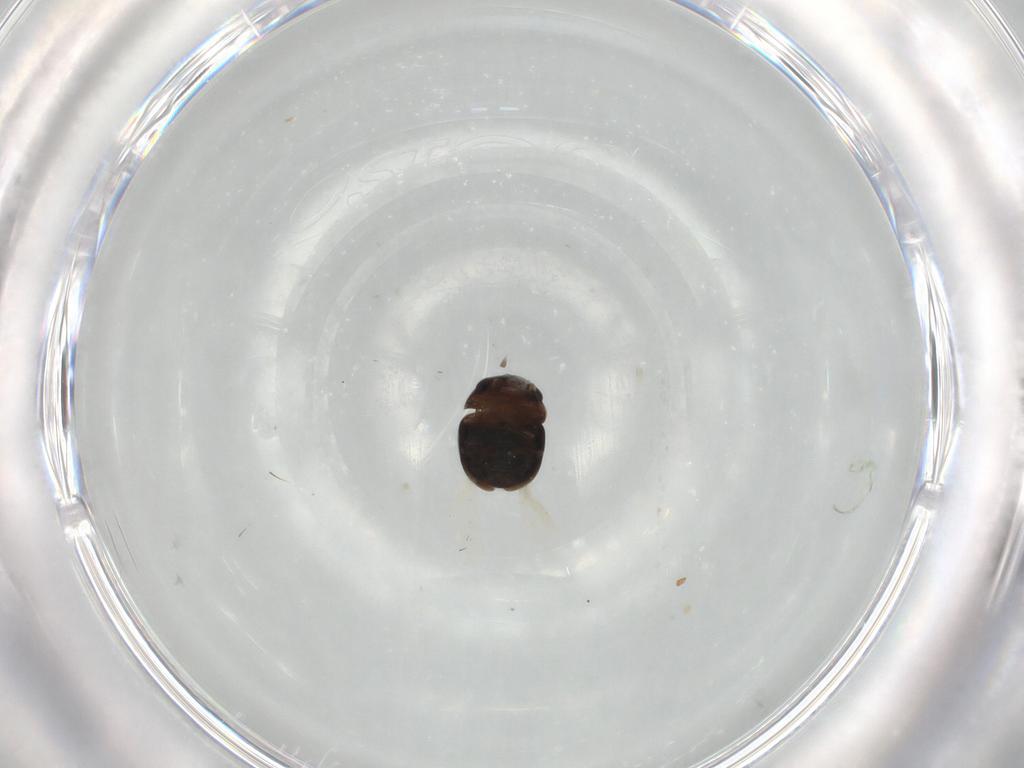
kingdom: Animalia
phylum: Arthropoda
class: Insecta
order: Coleoptera
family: Cybocephalidae
